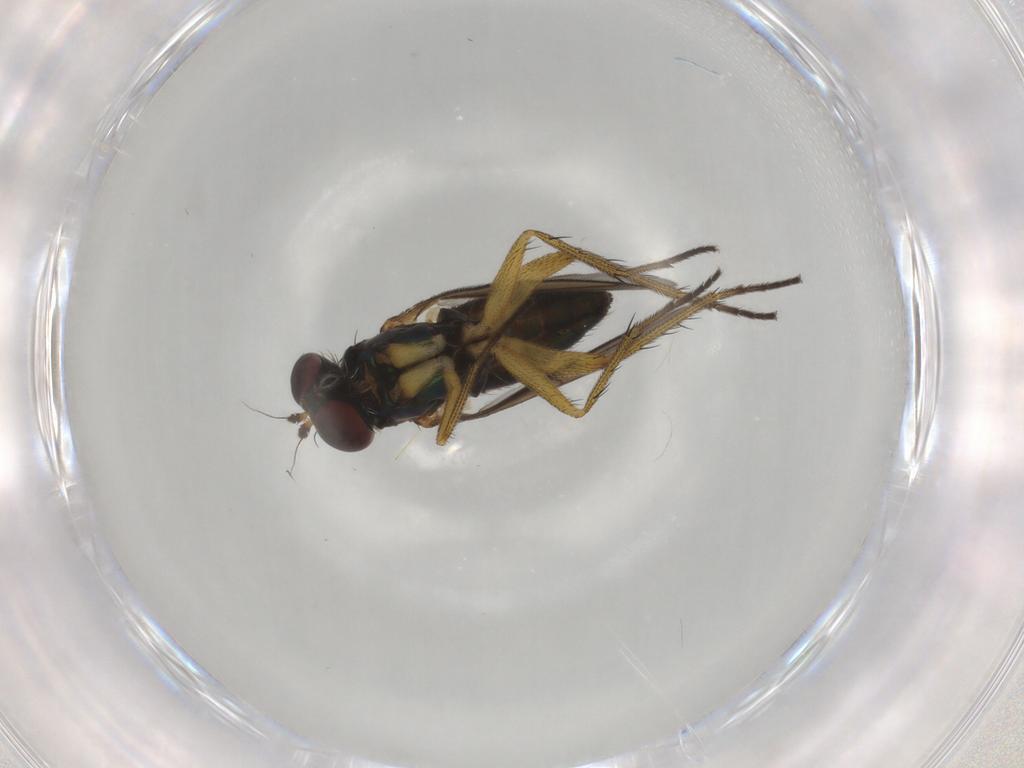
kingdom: Animalia
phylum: Arthropoda
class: Insecta
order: Diptera
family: Dolichopodidae
